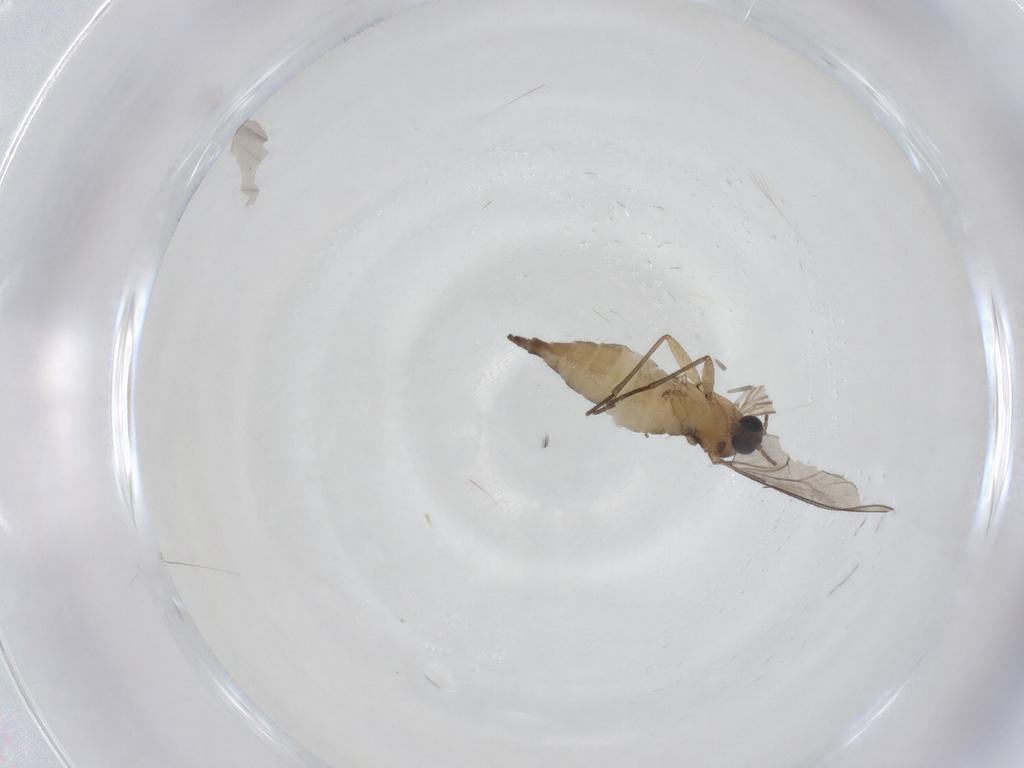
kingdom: Animalia
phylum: Arthropoda
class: Insecta
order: Diptera
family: Sciaridae
